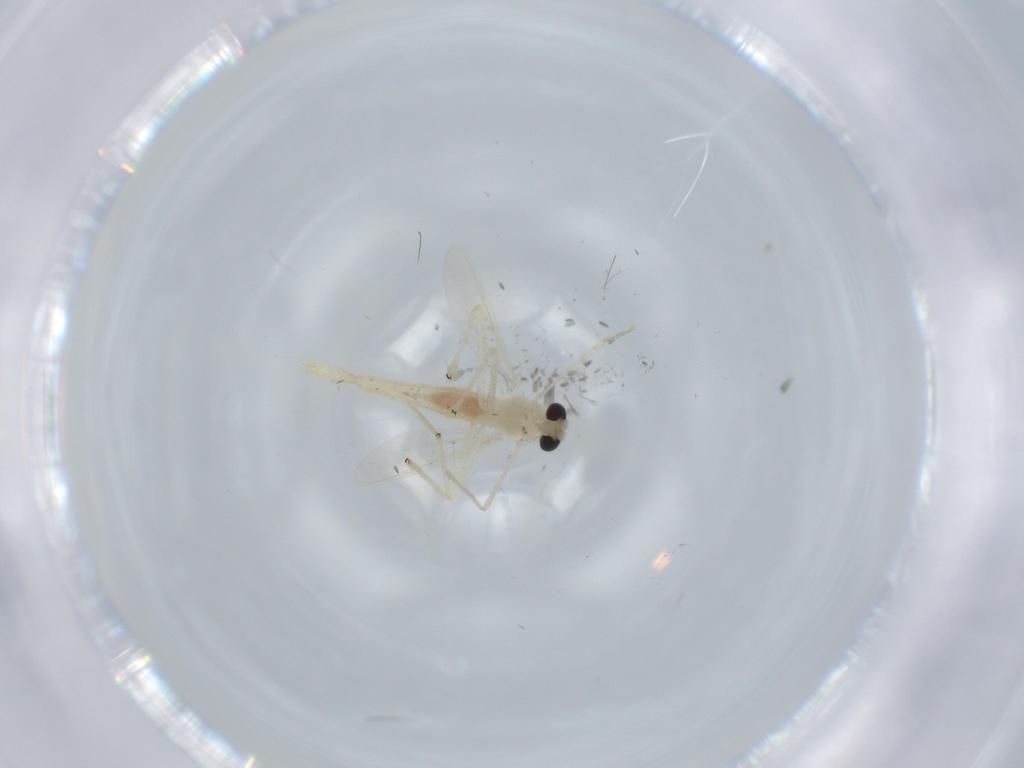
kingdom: Animalia
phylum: Arthropoda
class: Insecta
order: Diptera
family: Chironomidae
